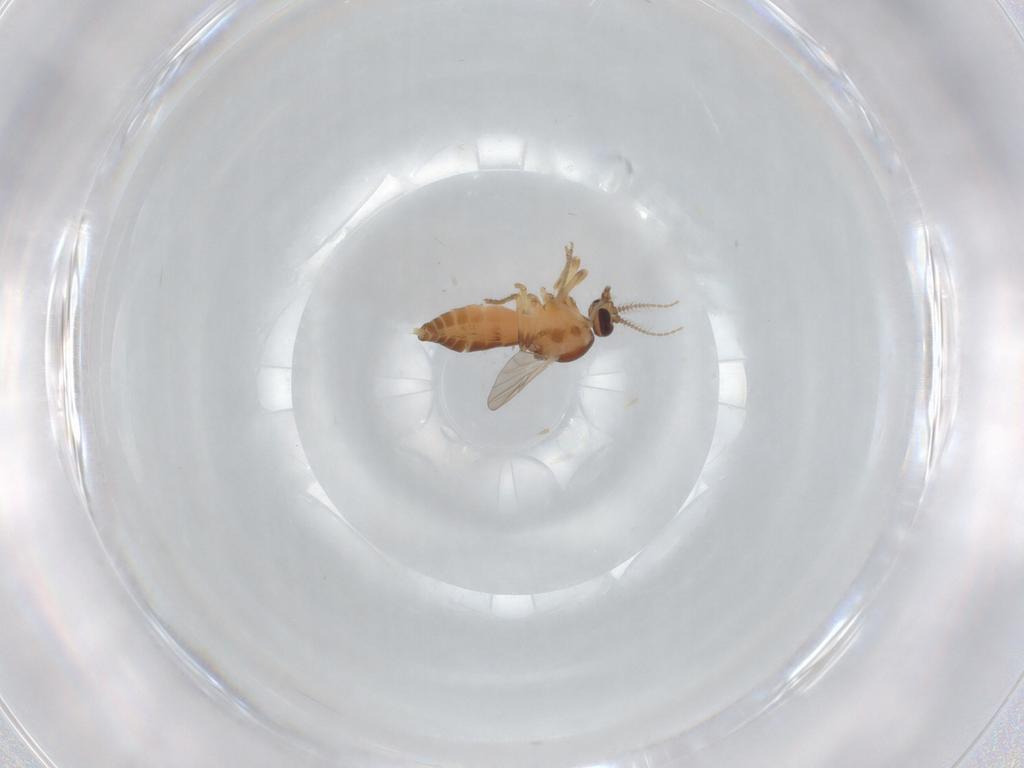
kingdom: Animalia
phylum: Arthropoda
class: Insecta
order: Diptera
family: Ceratopogonidae
